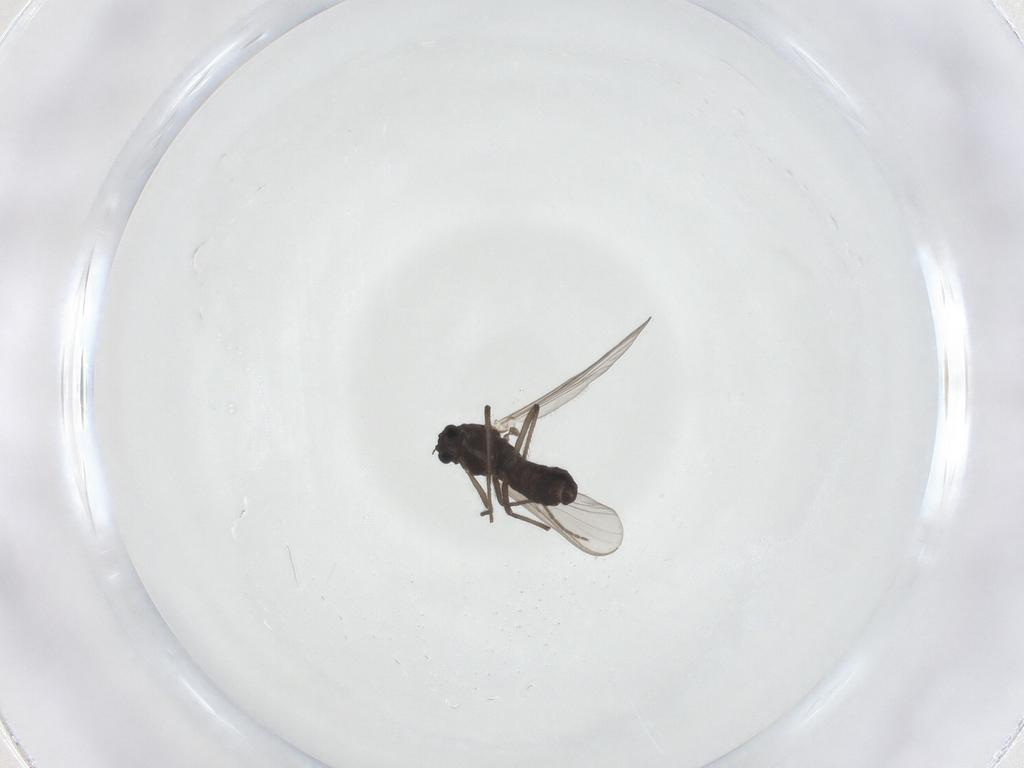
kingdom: Animalia
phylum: Arthropoda
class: Insecta
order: Diptera
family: Chironomidae
